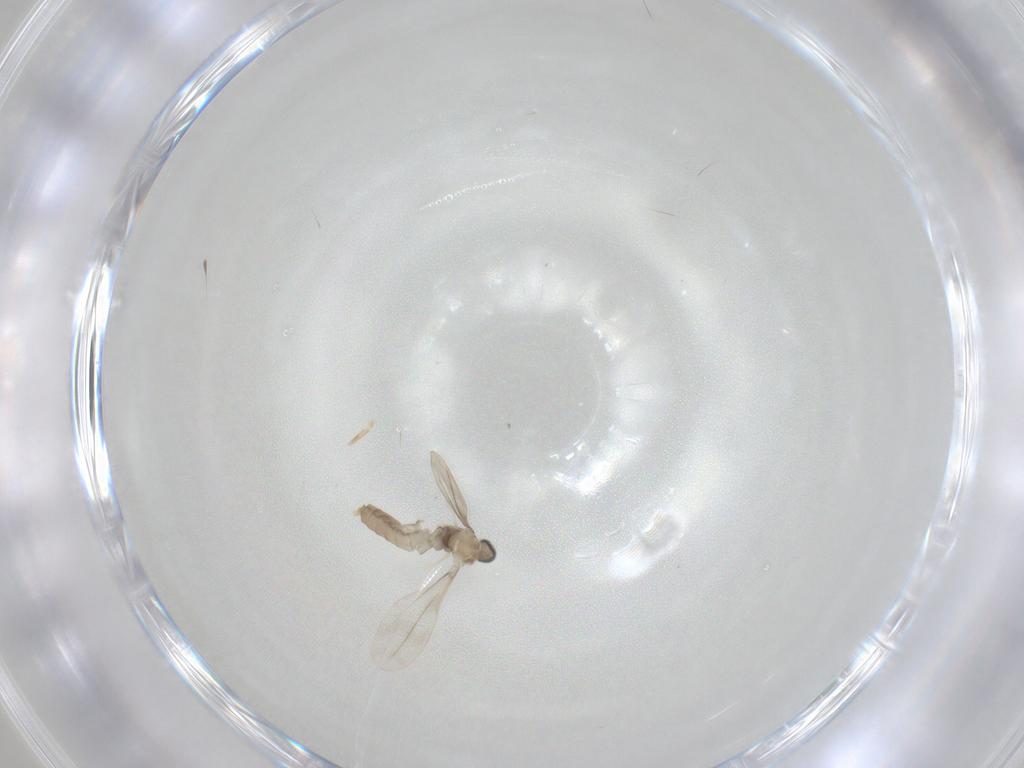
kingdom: Animalia
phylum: Arthropoda
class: Insecta
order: Diptera
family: Cecidomyiidae
